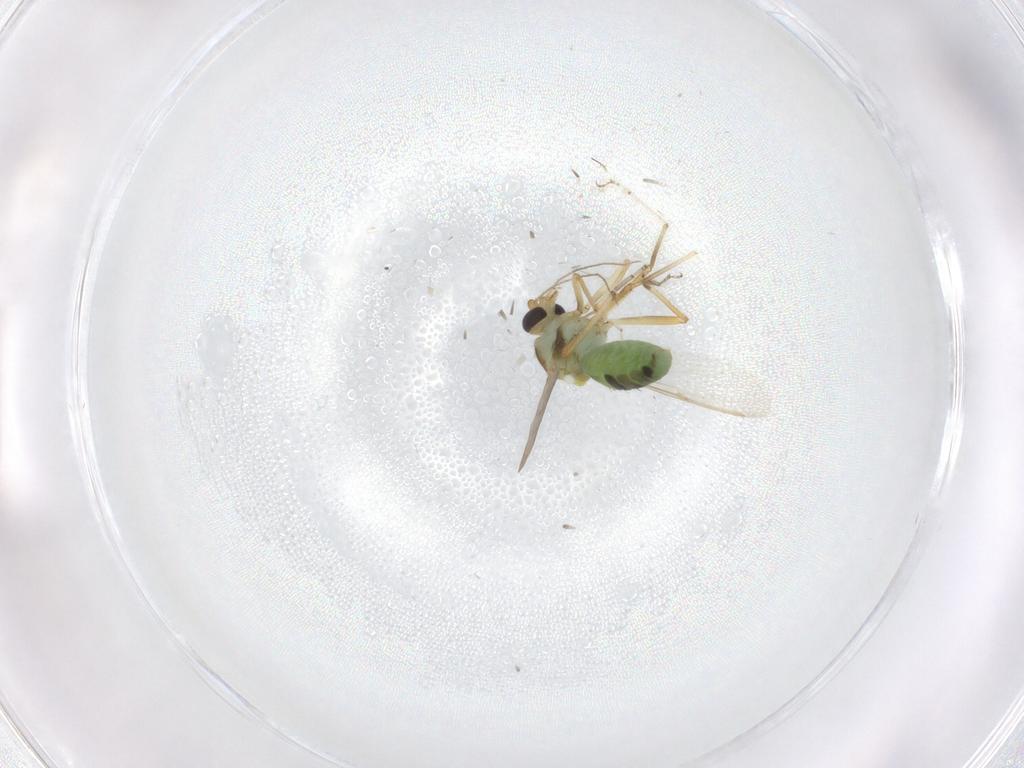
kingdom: Animalia
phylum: Arthropoda
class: Insecta
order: Diptera
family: Ceratopogonidae
